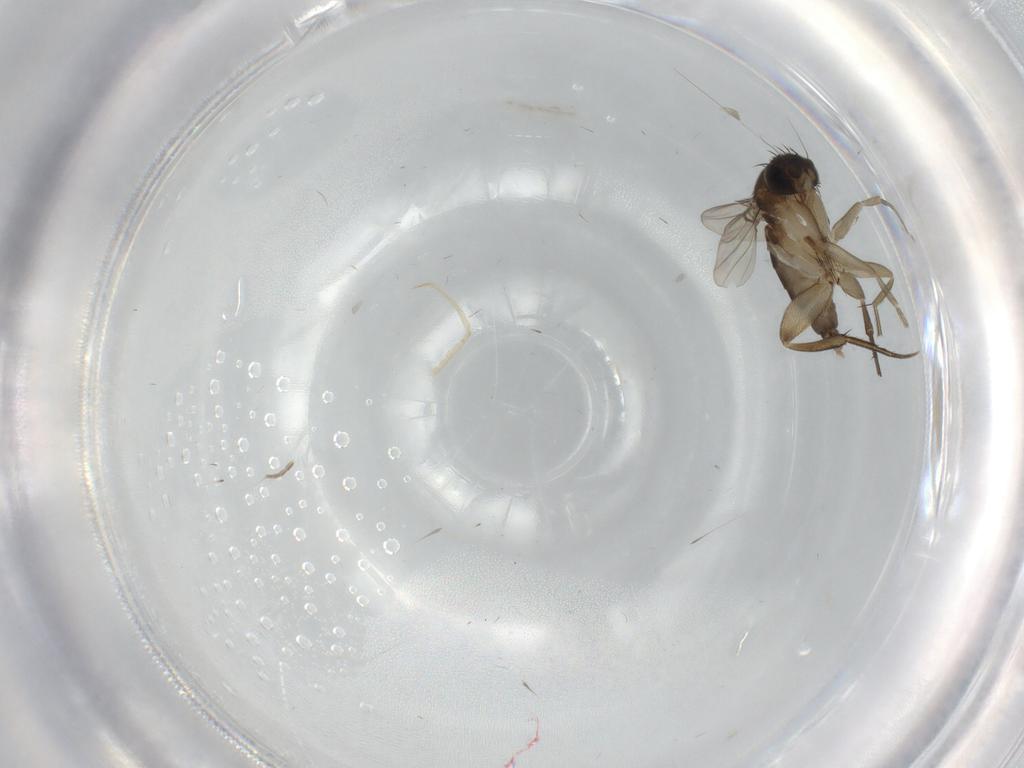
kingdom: Animalia
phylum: Arthropoda
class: Insecta
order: Diptera
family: Phoridae
